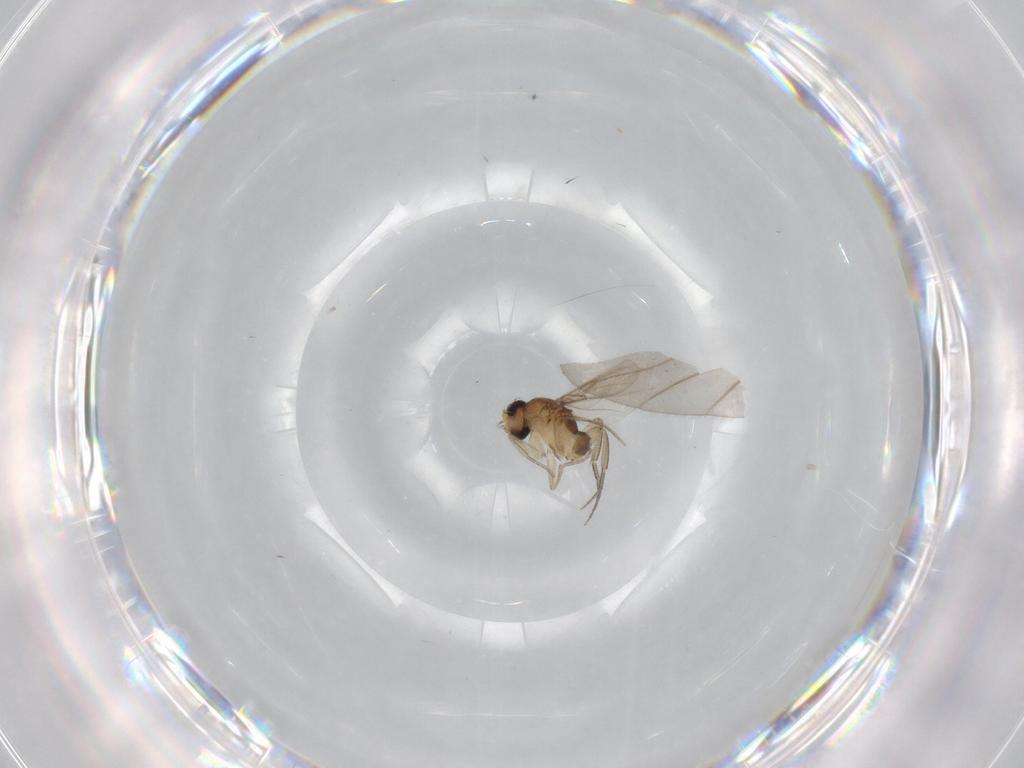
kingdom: Animalia
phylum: Arthropoda
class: Insecta
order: Diptera
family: Phoridae
